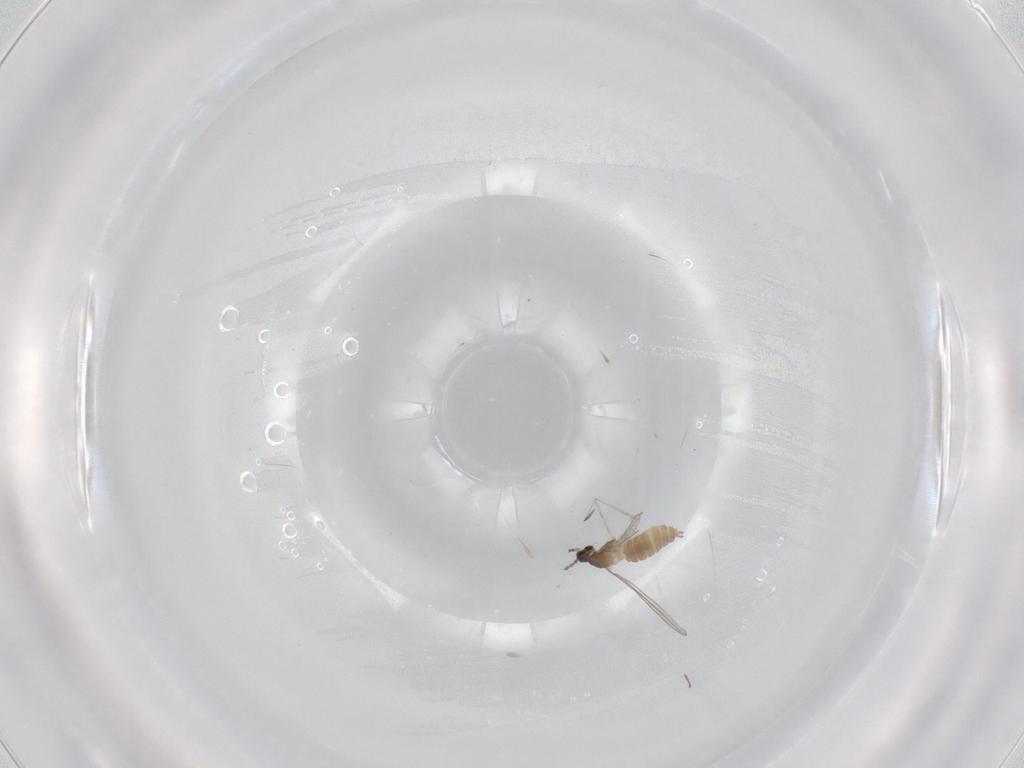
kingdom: Animalia
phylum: Arthropoda
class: Insecta
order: Diptera
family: Cecidomyiidae
